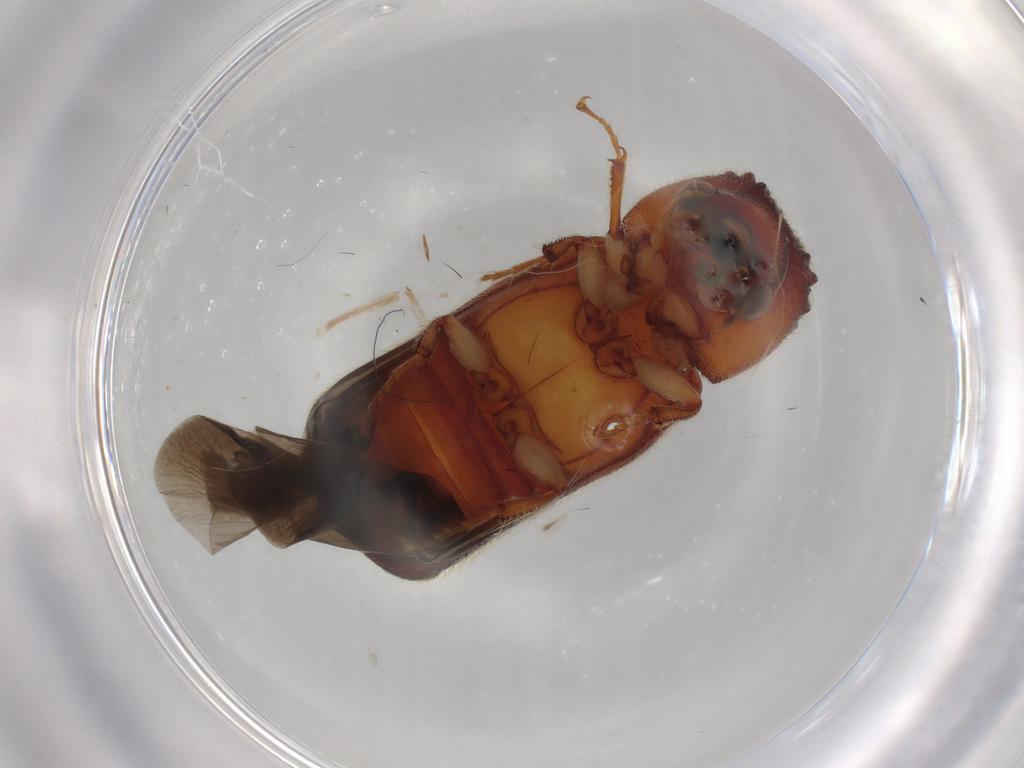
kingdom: Animalia
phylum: Arthropoda
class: Insecta
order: Coleoptera
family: Bostrichidae
